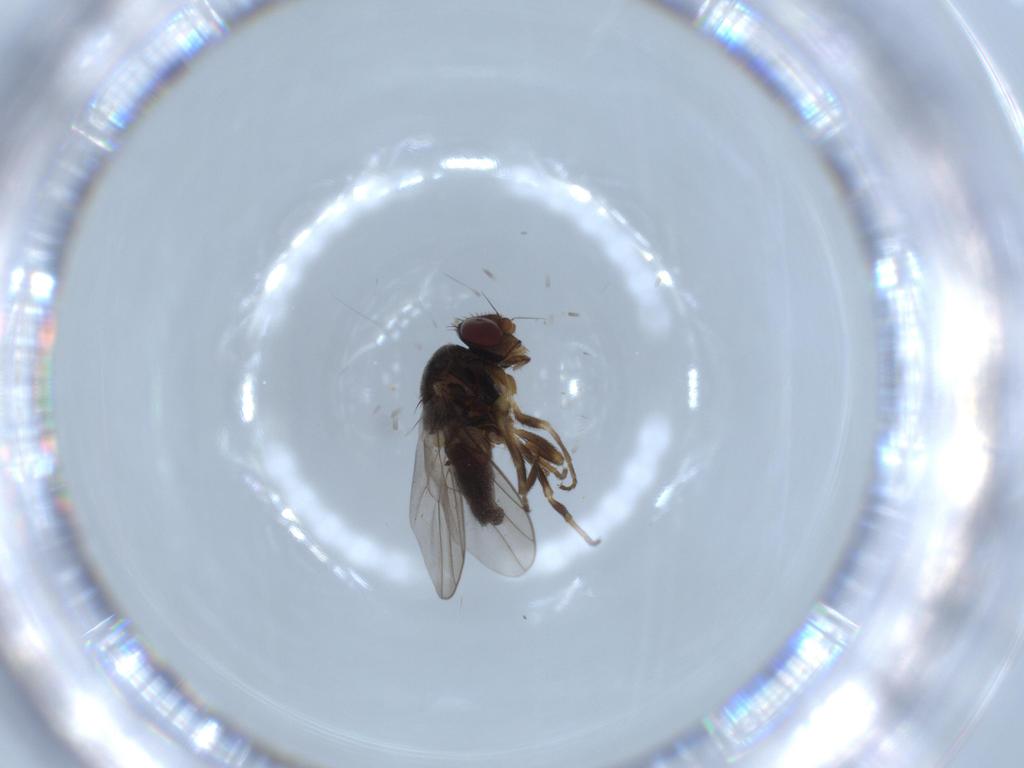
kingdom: Animalia
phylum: Arthropoda
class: Insecta
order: Diptera
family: Chloropidae
